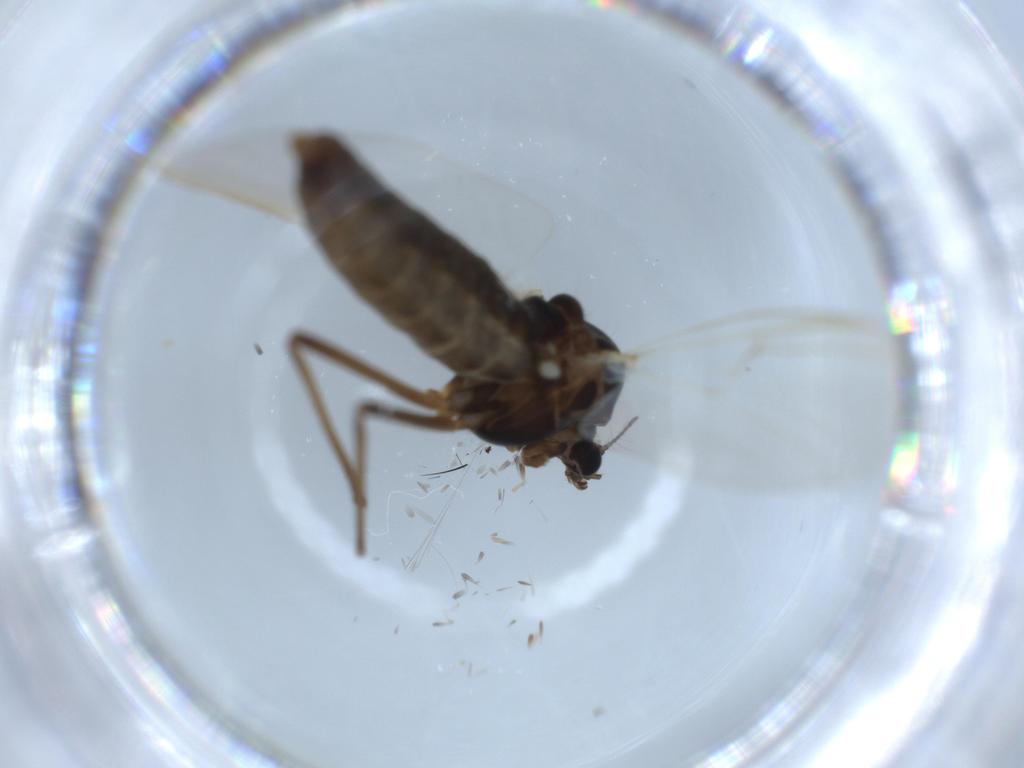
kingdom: Animalia
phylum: Arthropoda
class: Insecta
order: Diptera
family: Chironomidae
